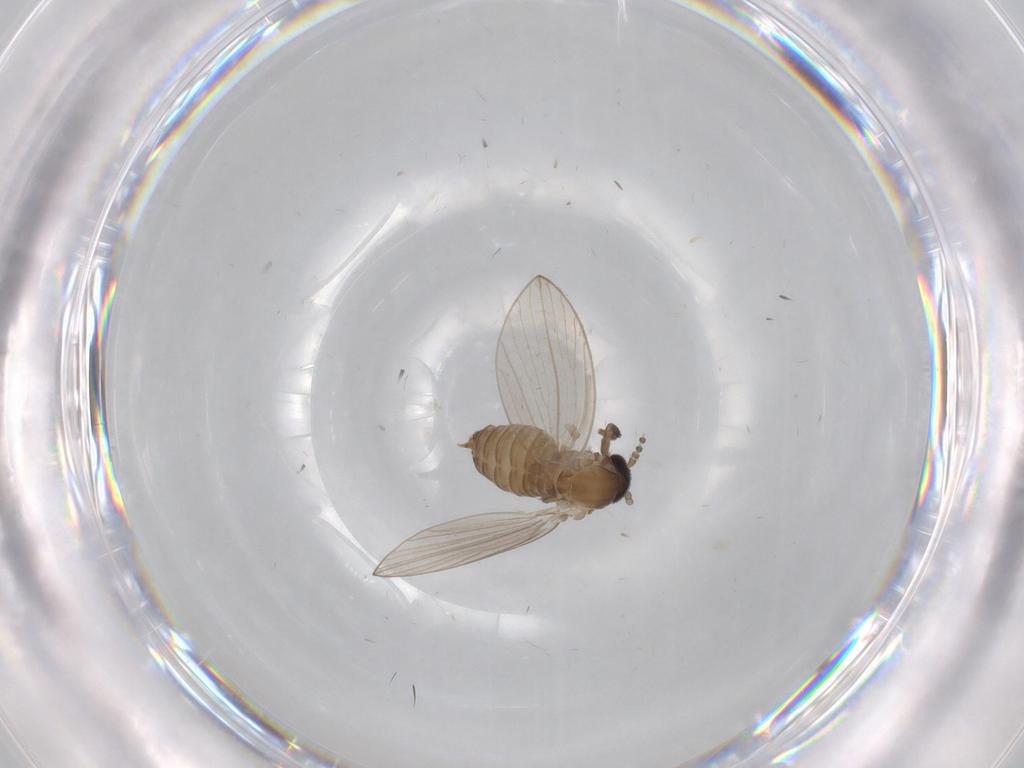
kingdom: Animalia
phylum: Arthropoda
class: Insecta
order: Diptera
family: Psychodidae
